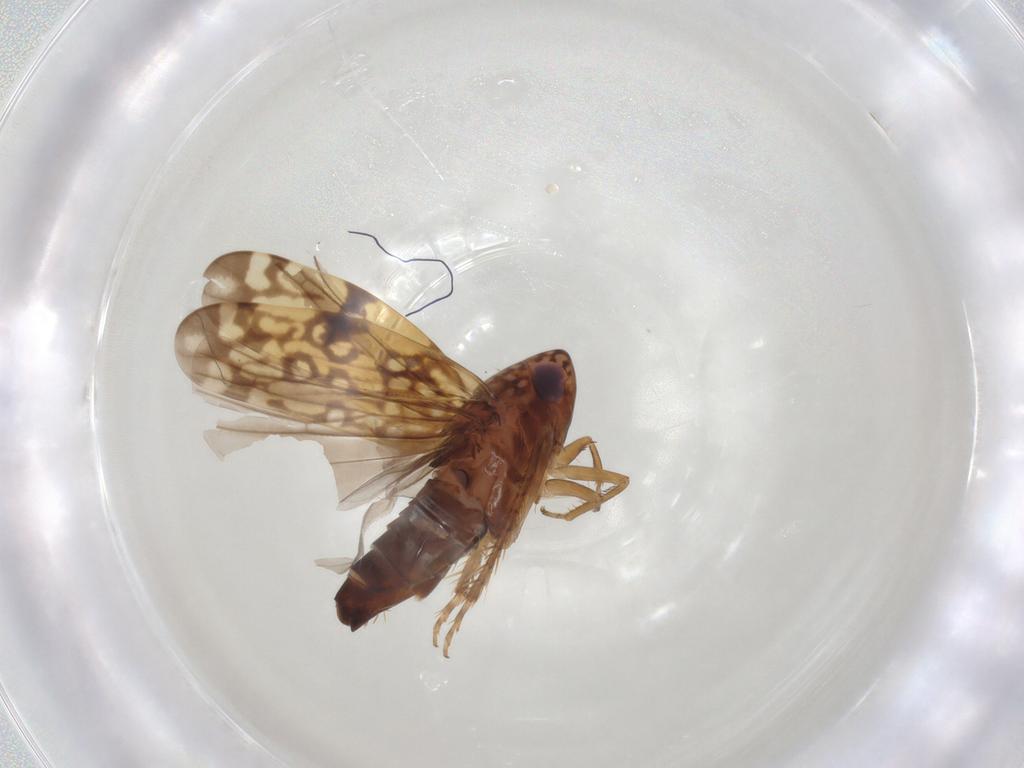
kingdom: Animalia
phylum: Arthropoda
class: Insecta
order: Hemiptera
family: Cicadellidae
